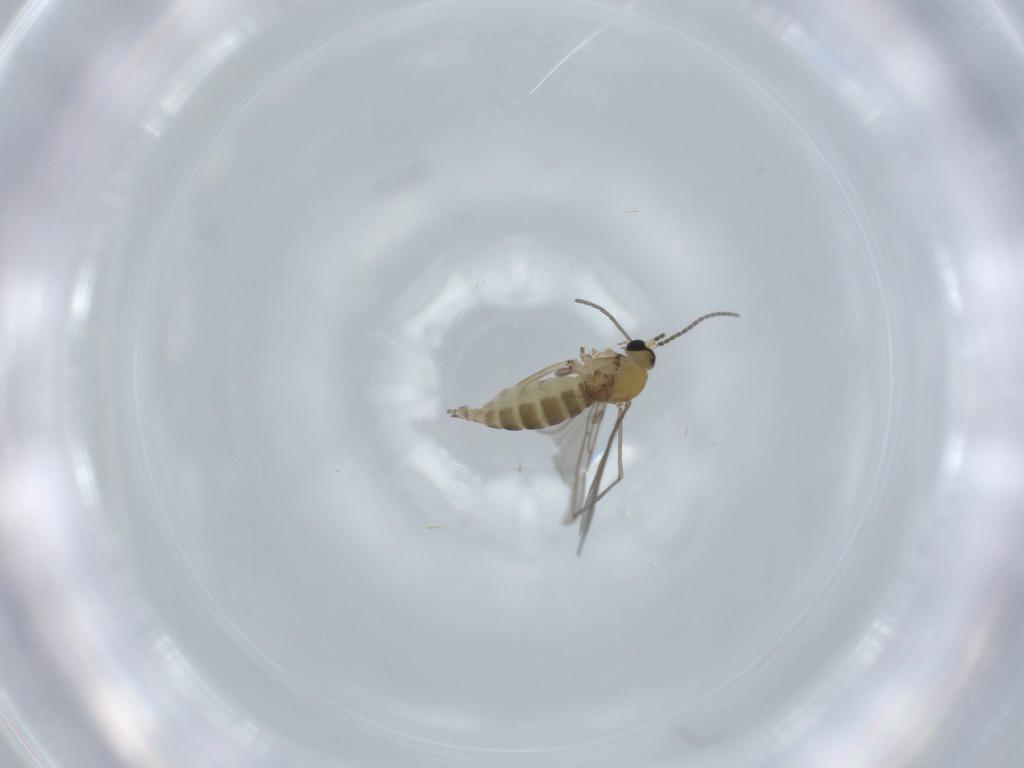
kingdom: Animalia
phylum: Arthropoda
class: Insecta
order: Diptera
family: Sciaridae
